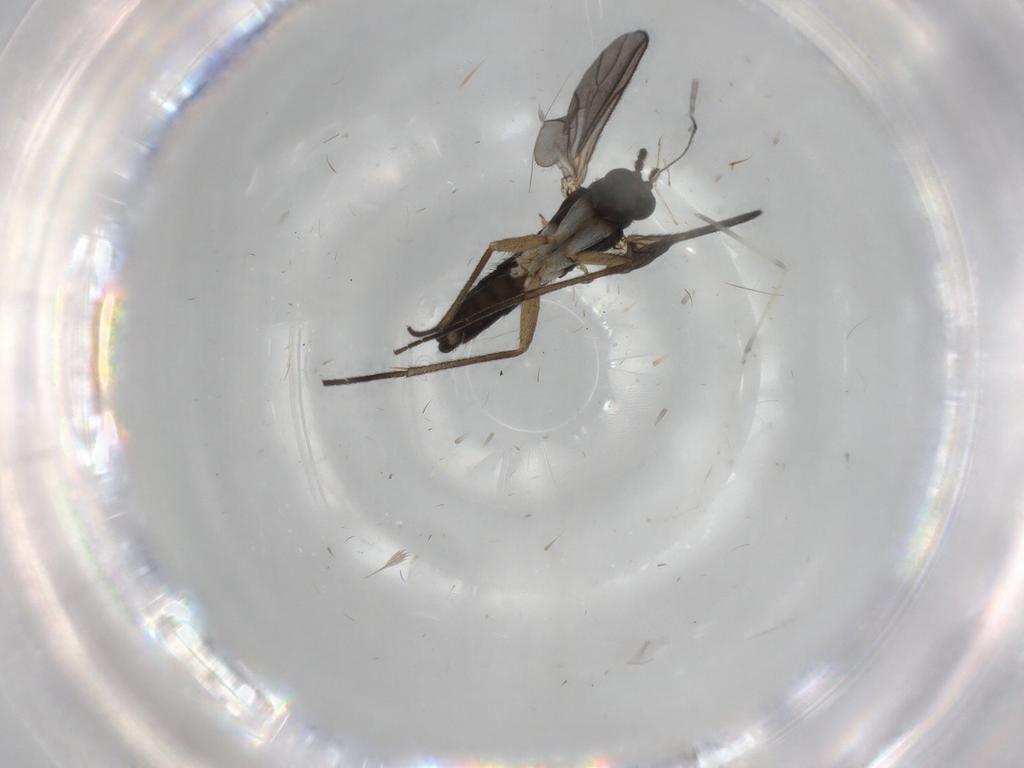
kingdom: Animalia
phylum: Arthropoda
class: Insecta
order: Diptera
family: Sciaridae
